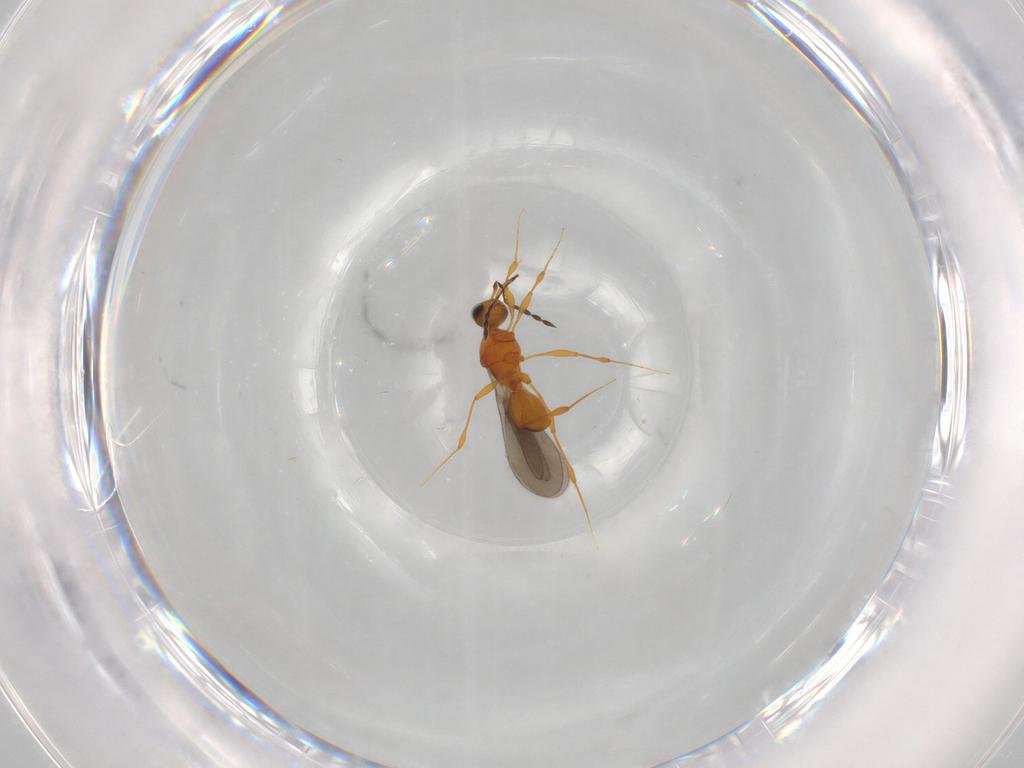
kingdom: Animalia
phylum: Arthropoda
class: Insecta
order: Hymenoptera
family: Platygastridae
